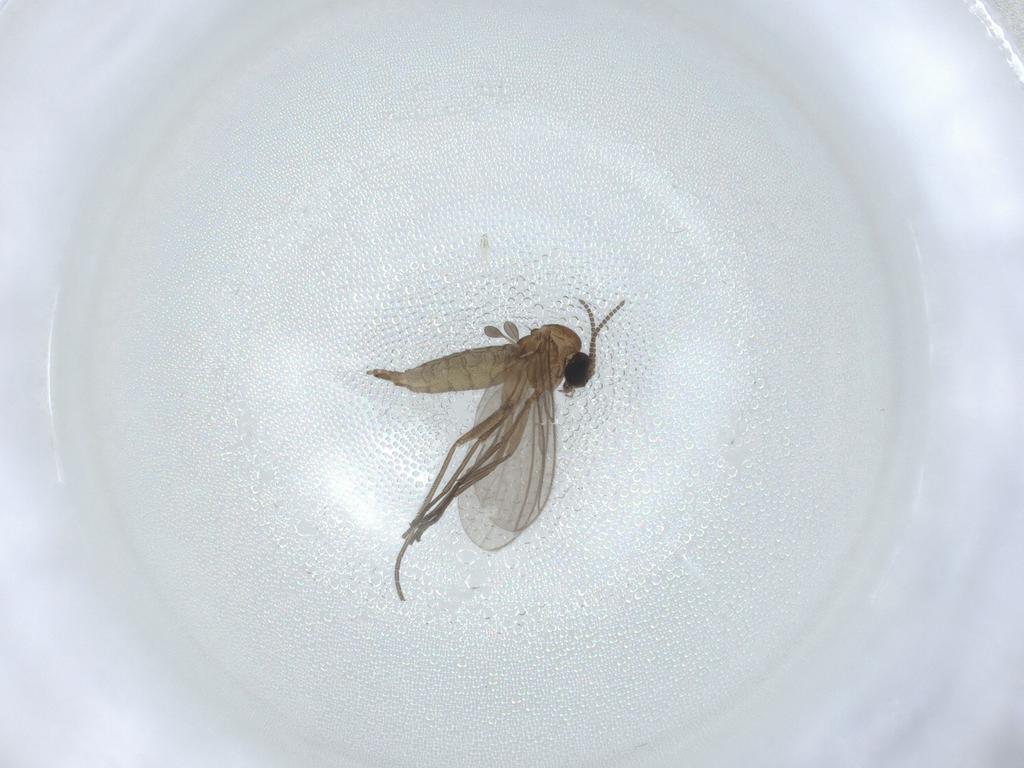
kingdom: Animalia
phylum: Arthropoda
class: Insecta
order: Diptera
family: Sciaridae
